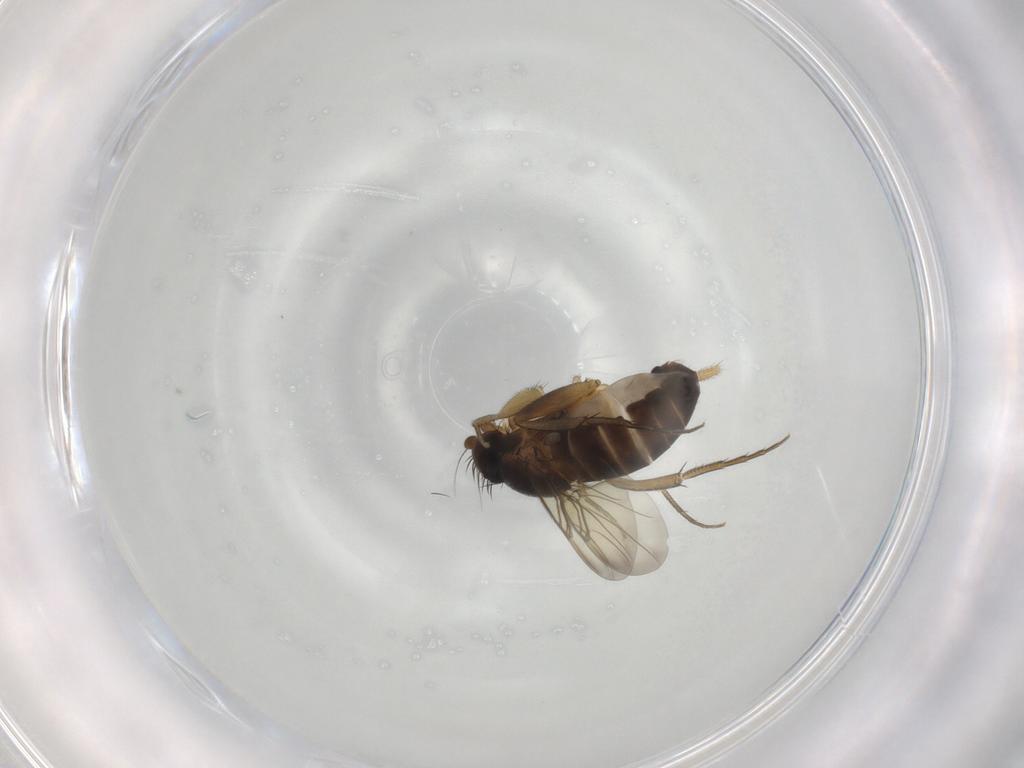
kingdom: Animalia
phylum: Arthropoda
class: Insecta
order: Diptera
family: Phoridae
